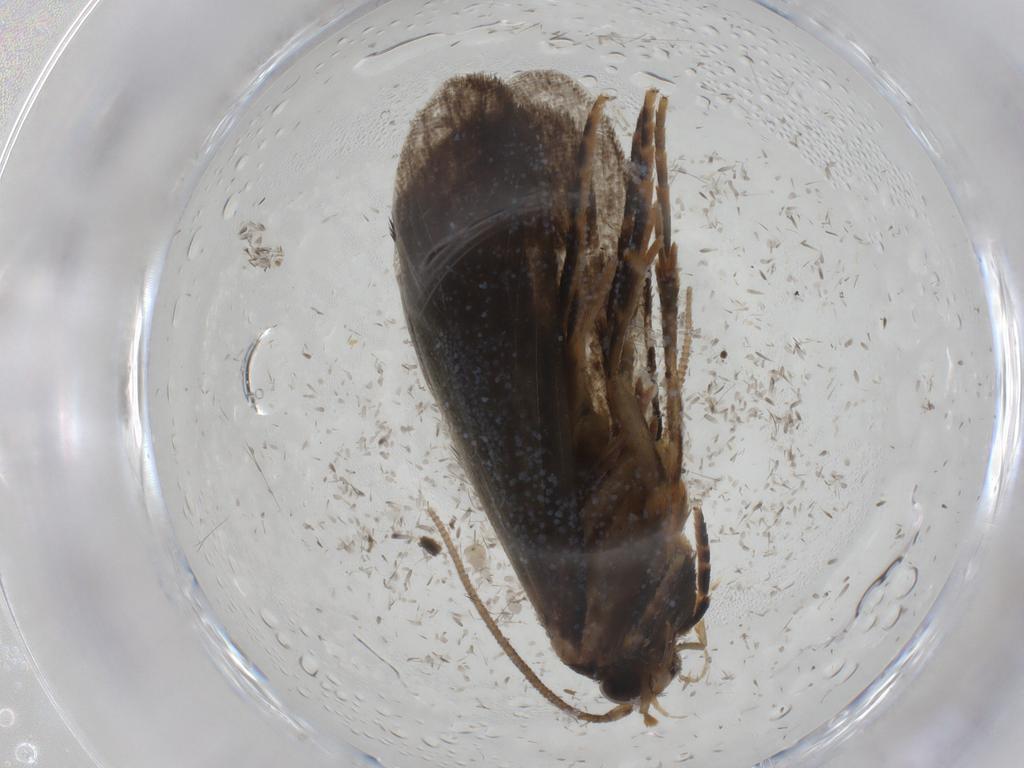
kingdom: Animalia
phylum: Arthropoda
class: Insecta
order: Lepidoptera
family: Tineidae
